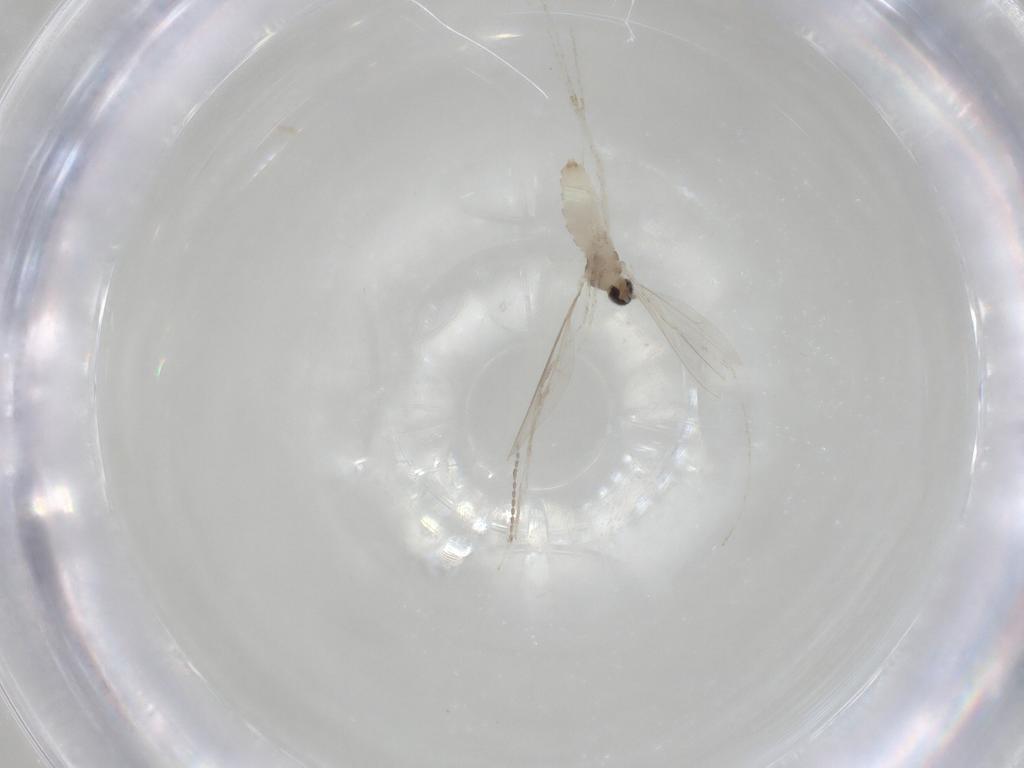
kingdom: Animalia
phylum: Arthropoda
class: Insecta
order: Diptera
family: Cecidomyiidae
